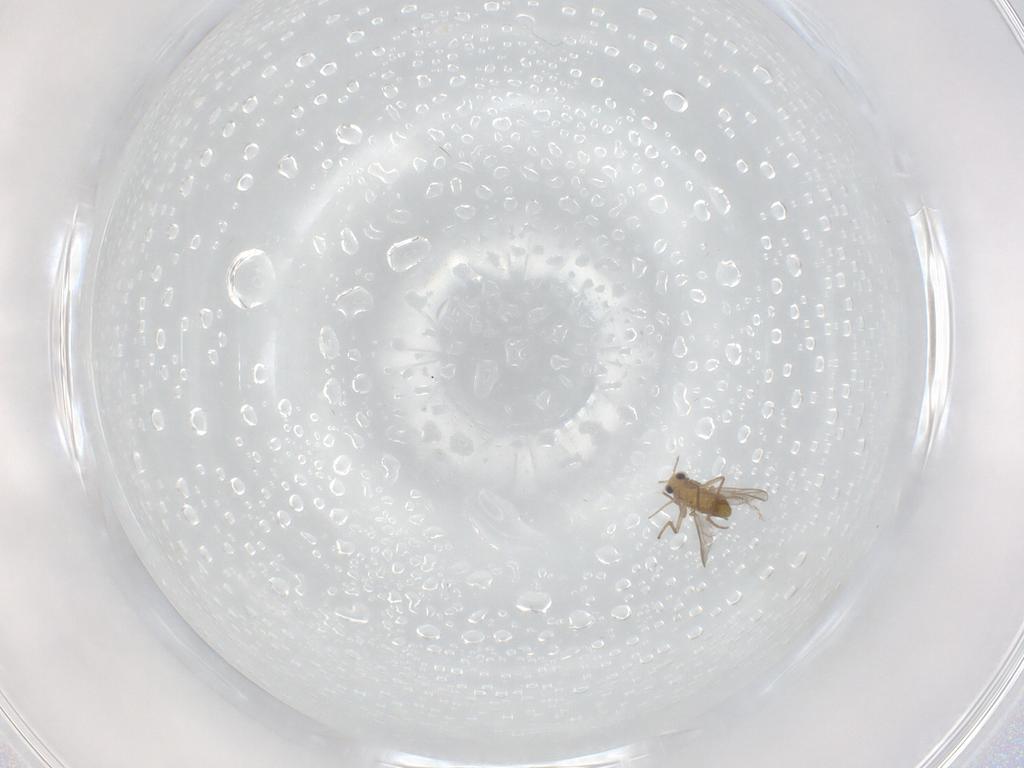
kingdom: Animalia
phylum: Arthropoda
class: Insecta
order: Diptera
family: Chironomidae
